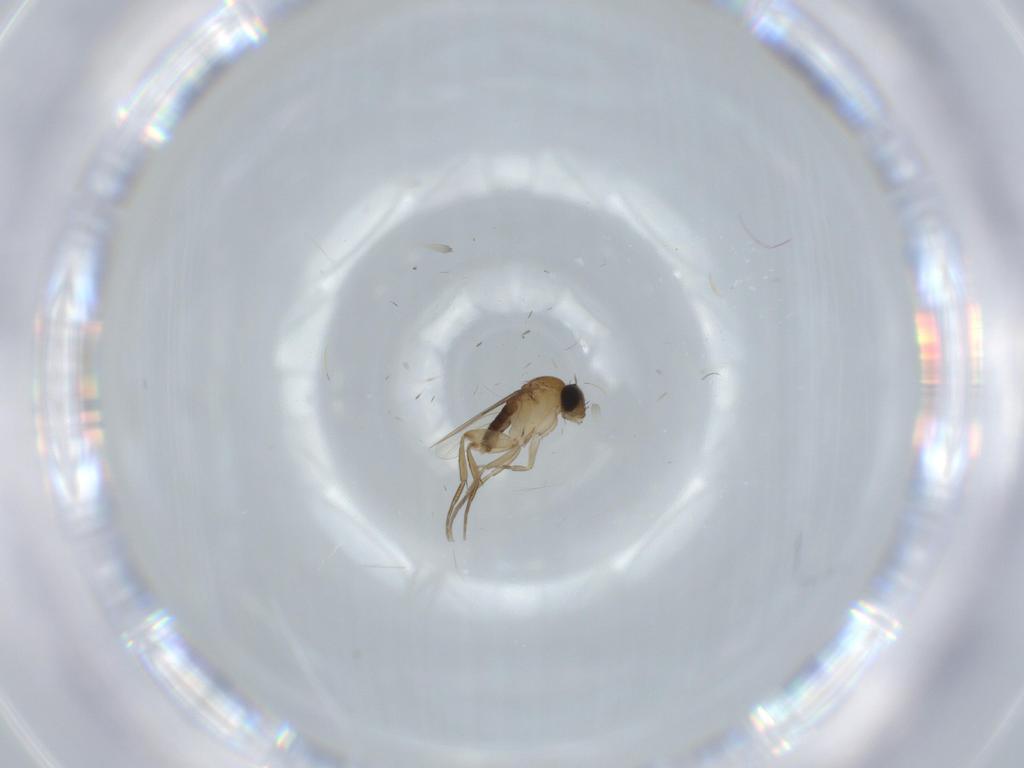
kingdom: Animalia
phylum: Arthropoda
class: Insecta
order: Diptera
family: Phoridae
